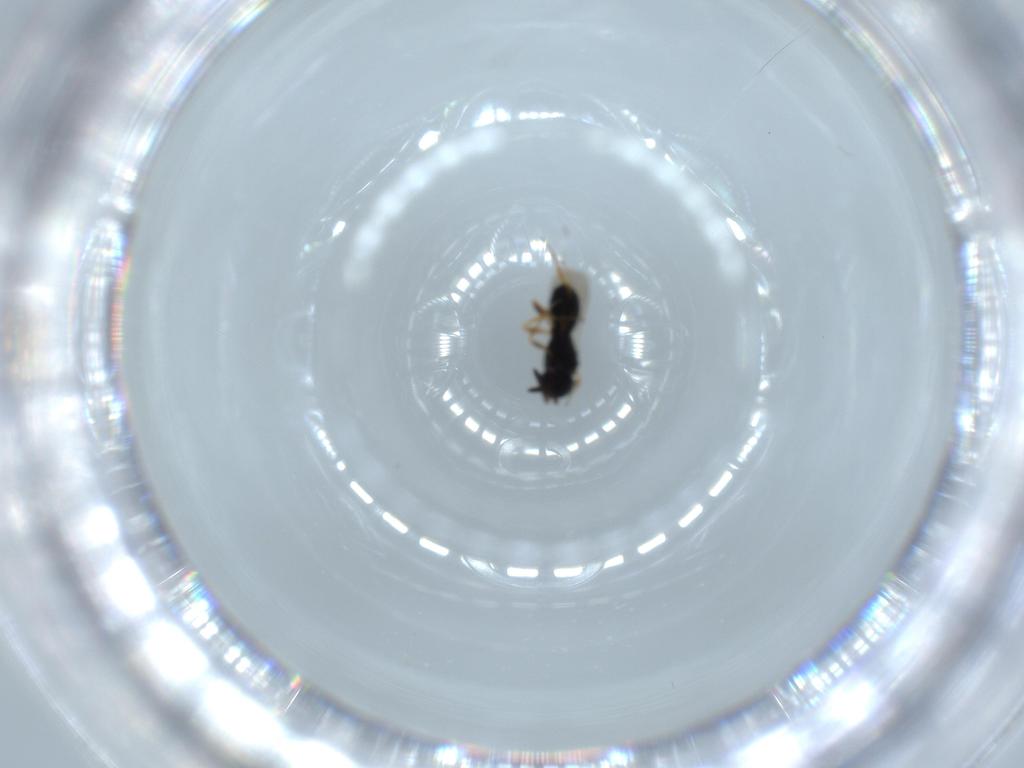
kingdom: Animalia
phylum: Arthropoda
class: Insecta
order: Hymenoptera
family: Scelionidae
